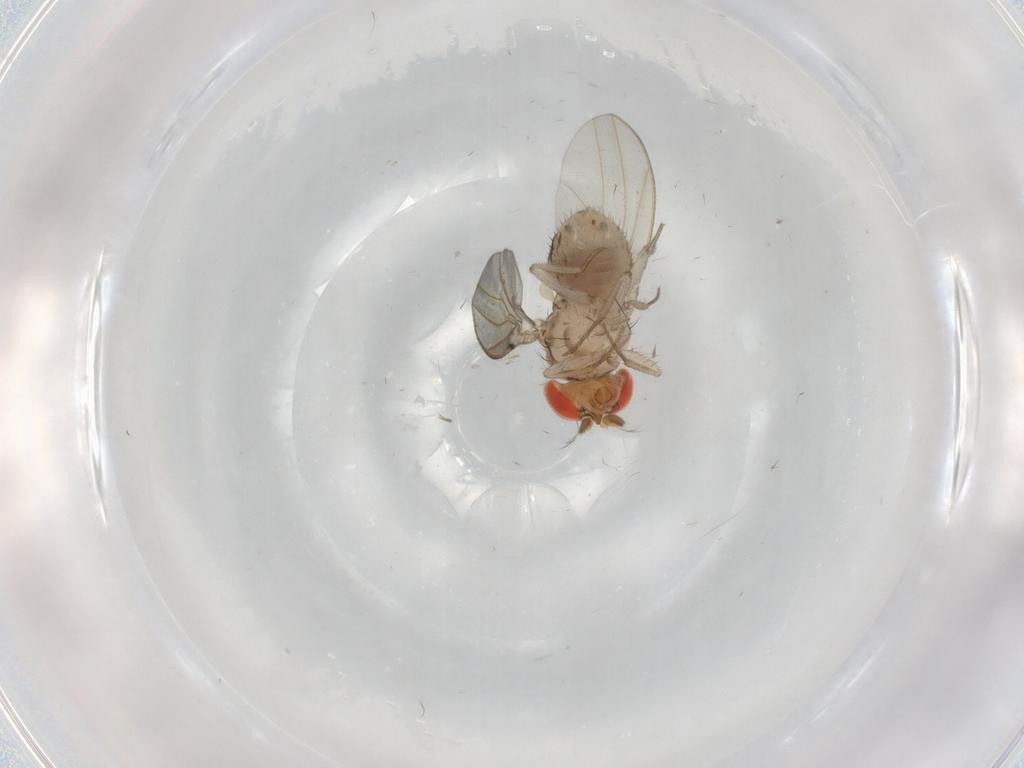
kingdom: Animalia
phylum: Arthropoda
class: Insecta
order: Diptera
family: Drosophilidae
